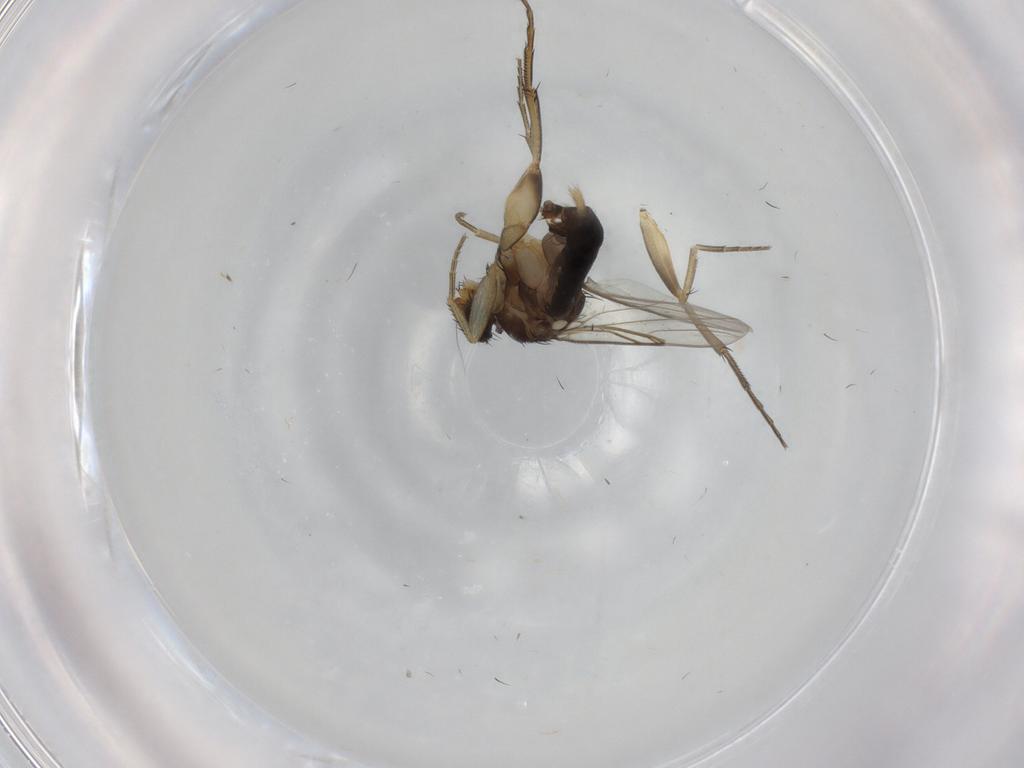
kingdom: Animalia
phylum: Arthropoda
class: Insecta
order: Diptera
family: Phoridae
